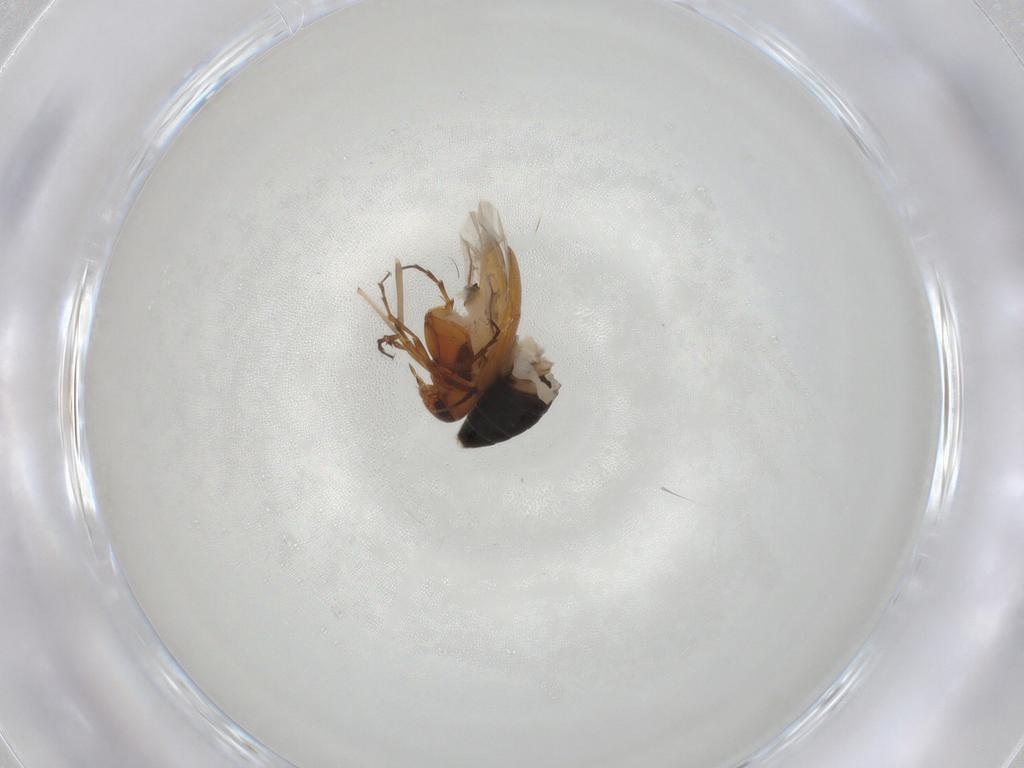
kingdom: Animalia
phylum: Arthropoda
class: Insecta
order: Coleoptera
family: Scraptiidae
